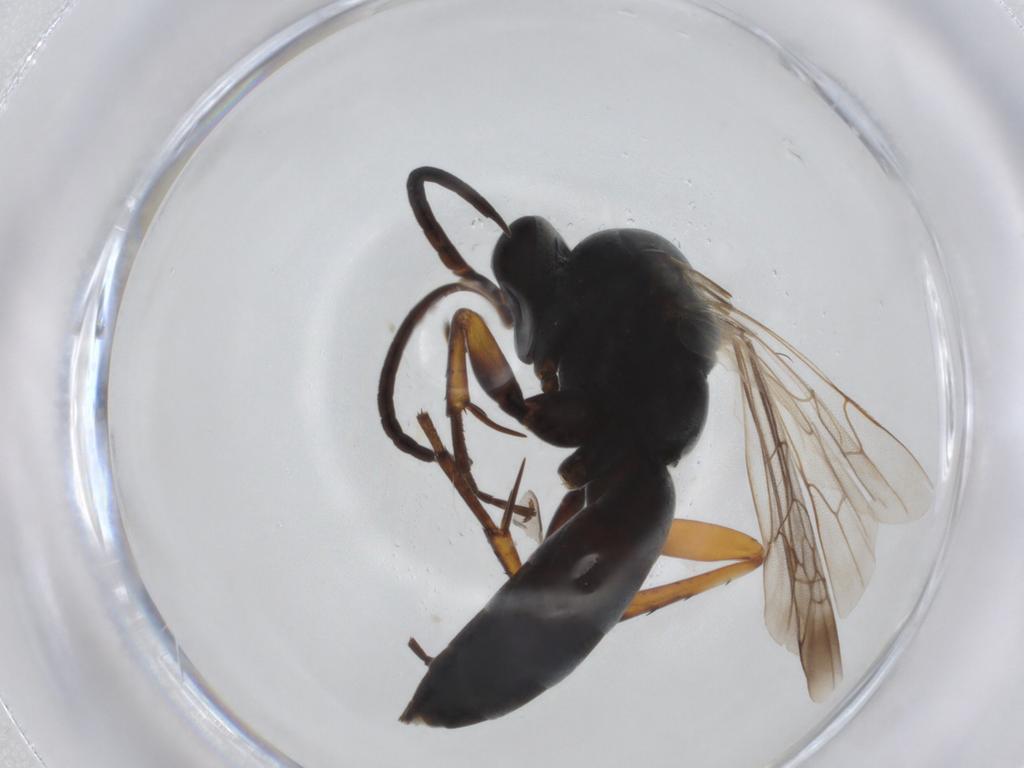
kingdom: Animalia
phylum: Arthropoda
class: Insecta
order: Hymenoptera
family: Pompilidae
